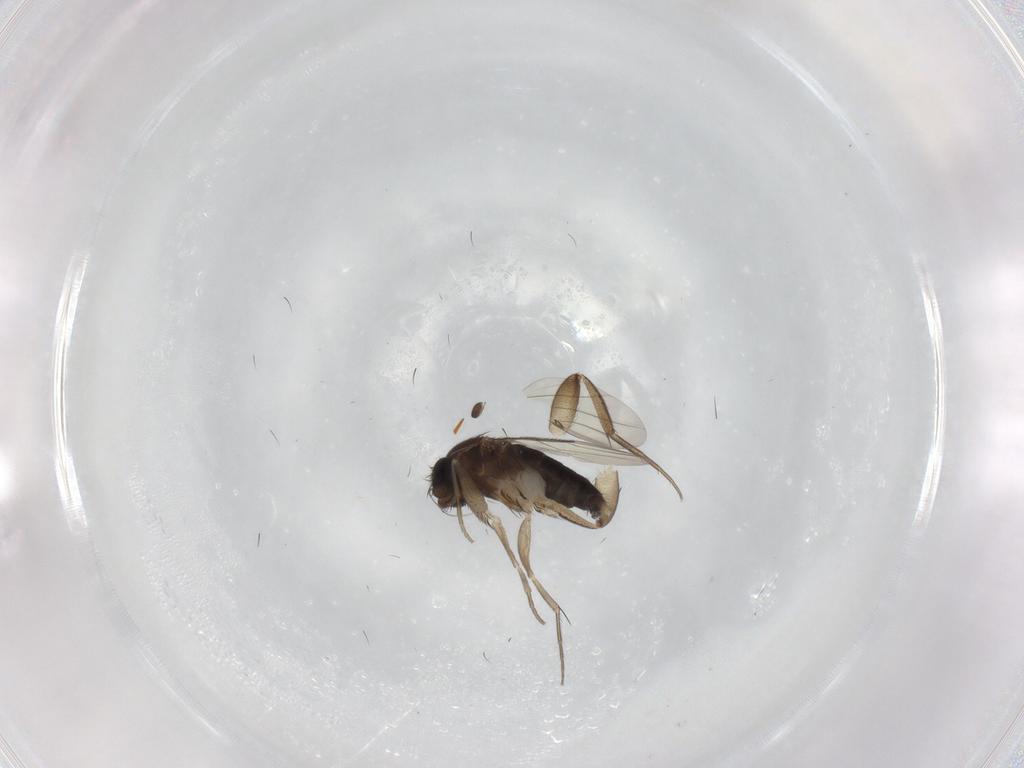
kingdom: Animalia
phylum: Arthropoda
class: Insecta
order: Diptera
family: Phoridae
